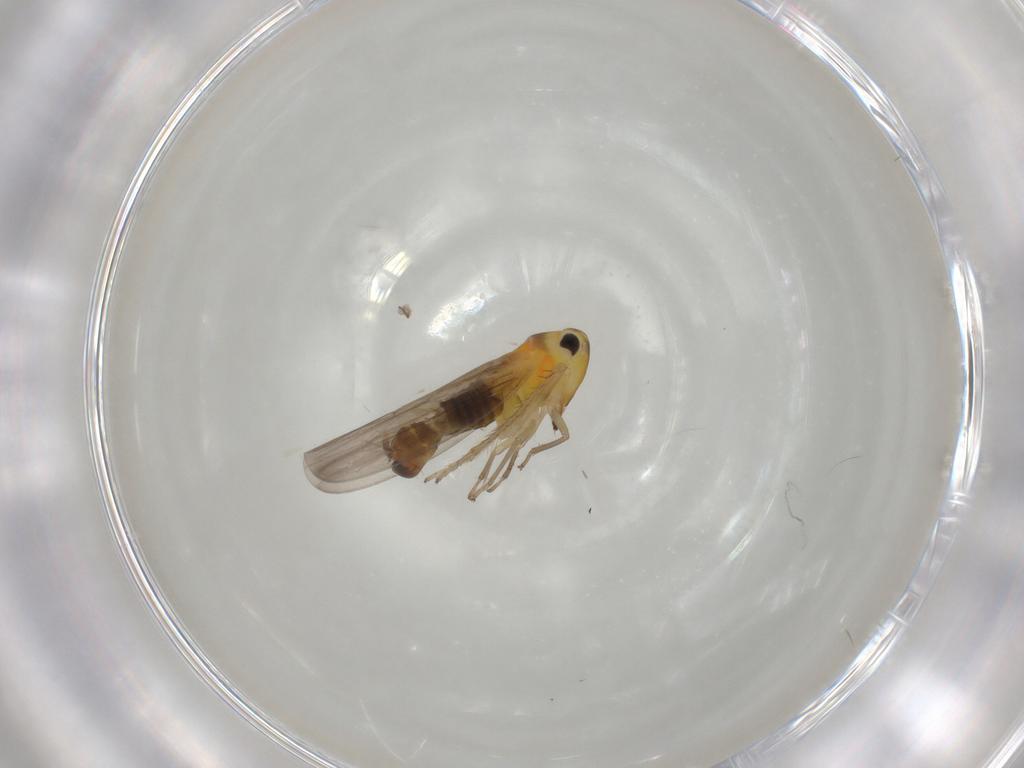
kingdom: Animalia
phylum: Arthropoda
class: Insecta
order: Hemiptera
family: Cicadellidae
